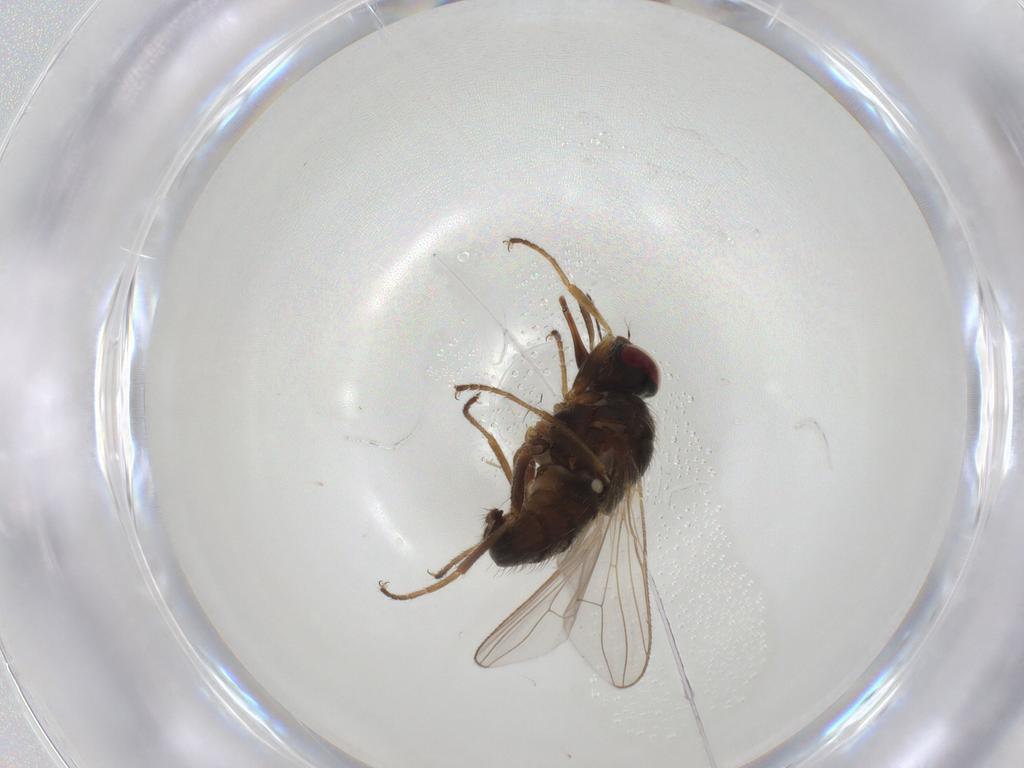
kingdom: Animalia
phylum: Arthropoda
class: Insecta
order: Diptera
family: Ceratopogonidae
